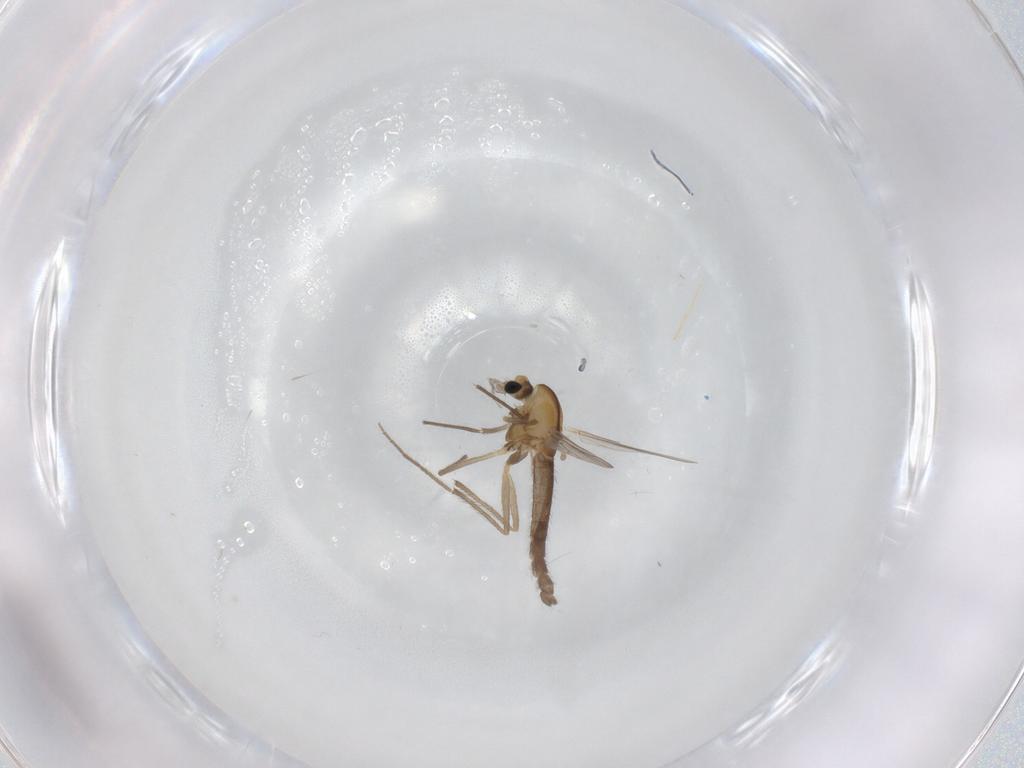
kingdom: Animalia
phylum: Arthropoda
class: Insecta
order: Diptera
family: Chironomidae
